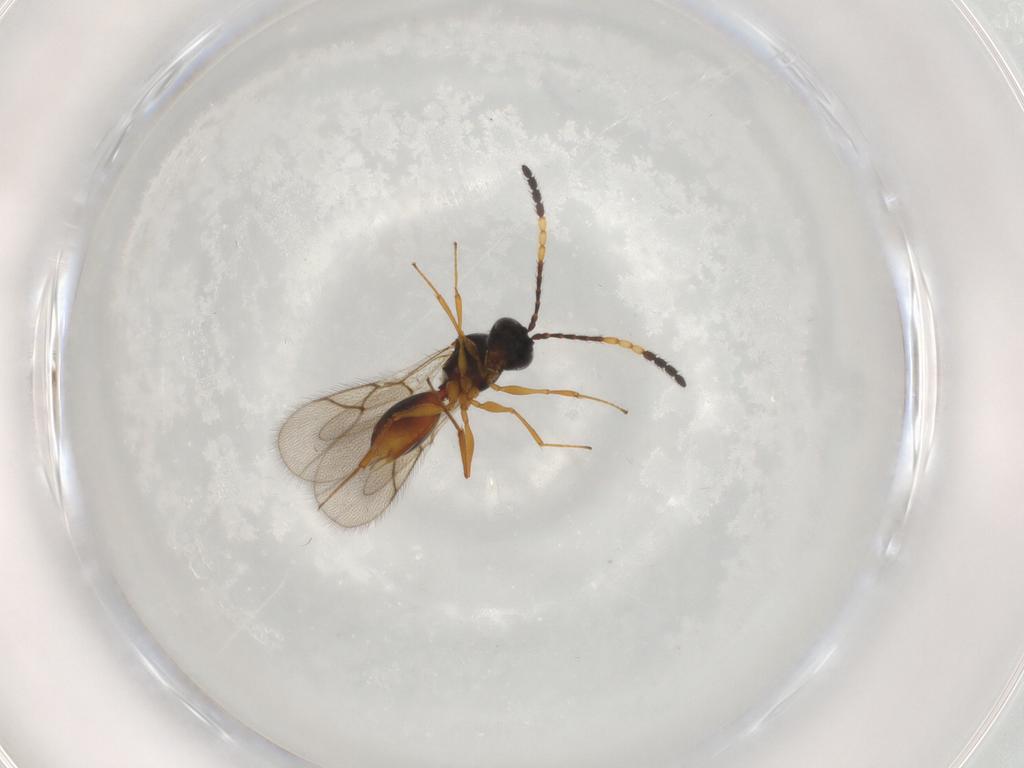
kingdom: Animalia
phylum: Arthropoda
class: Insecta
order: Hymenoptera
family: Figitidae
